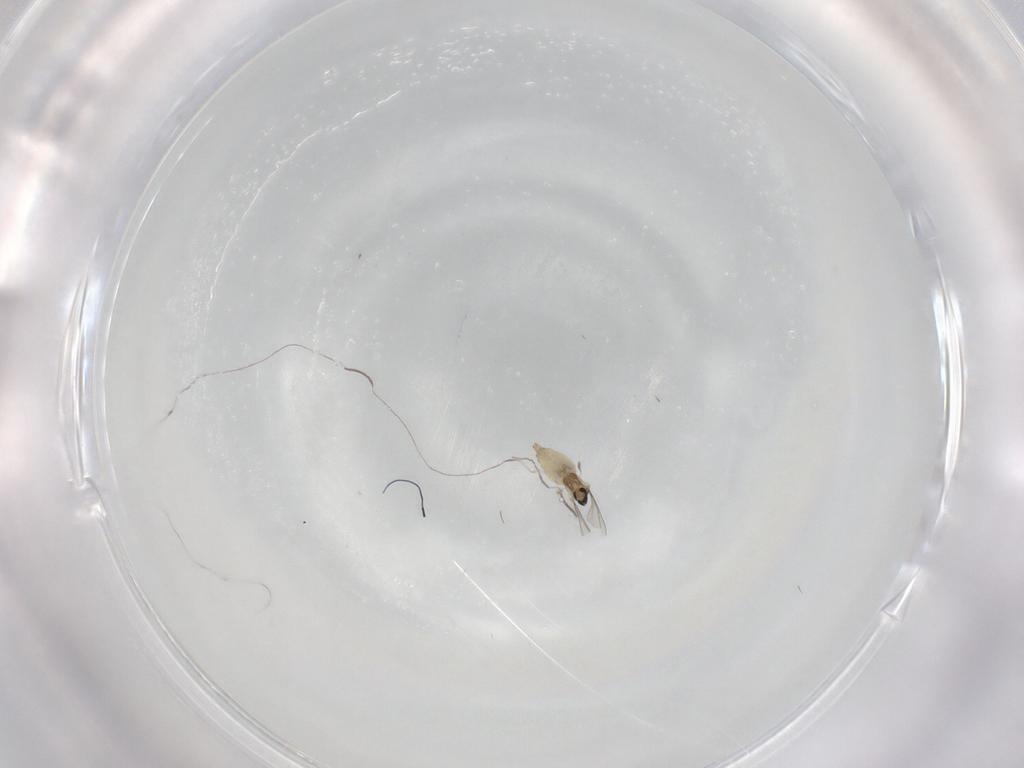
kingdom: Animalia
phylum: Arthropoda
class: Insecta
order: Diptera
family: Cecidomyiidae
